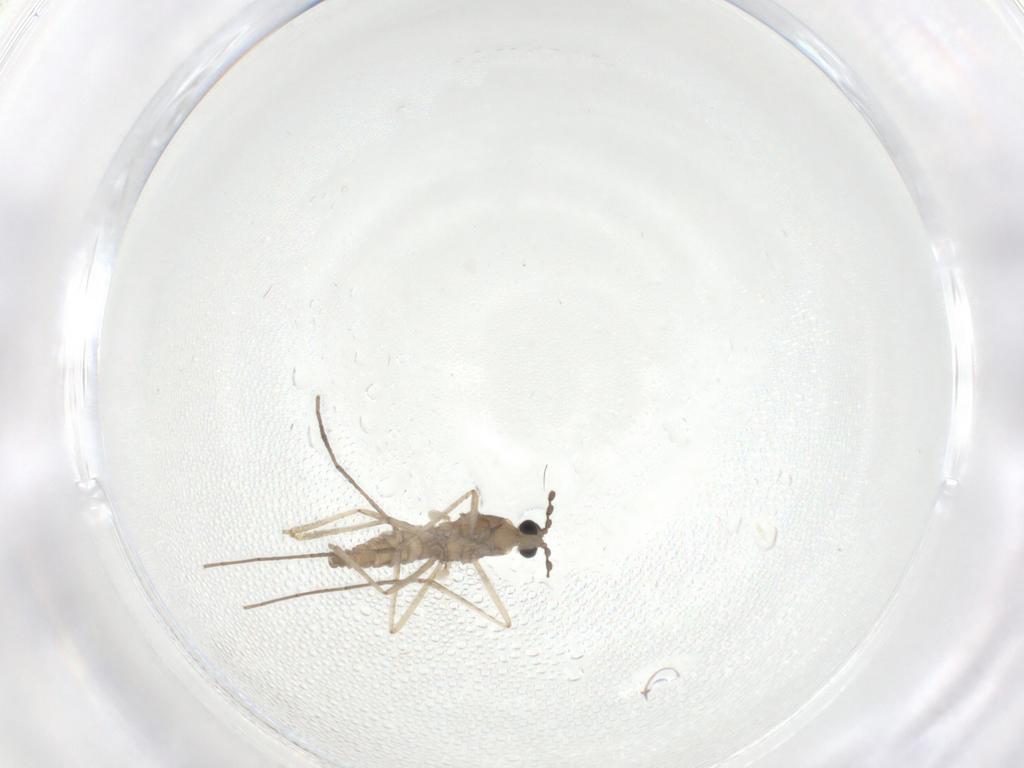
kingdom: Animalia
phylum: Arthropoda
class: Insecta
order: Diptera
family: Cecidomyiidae
